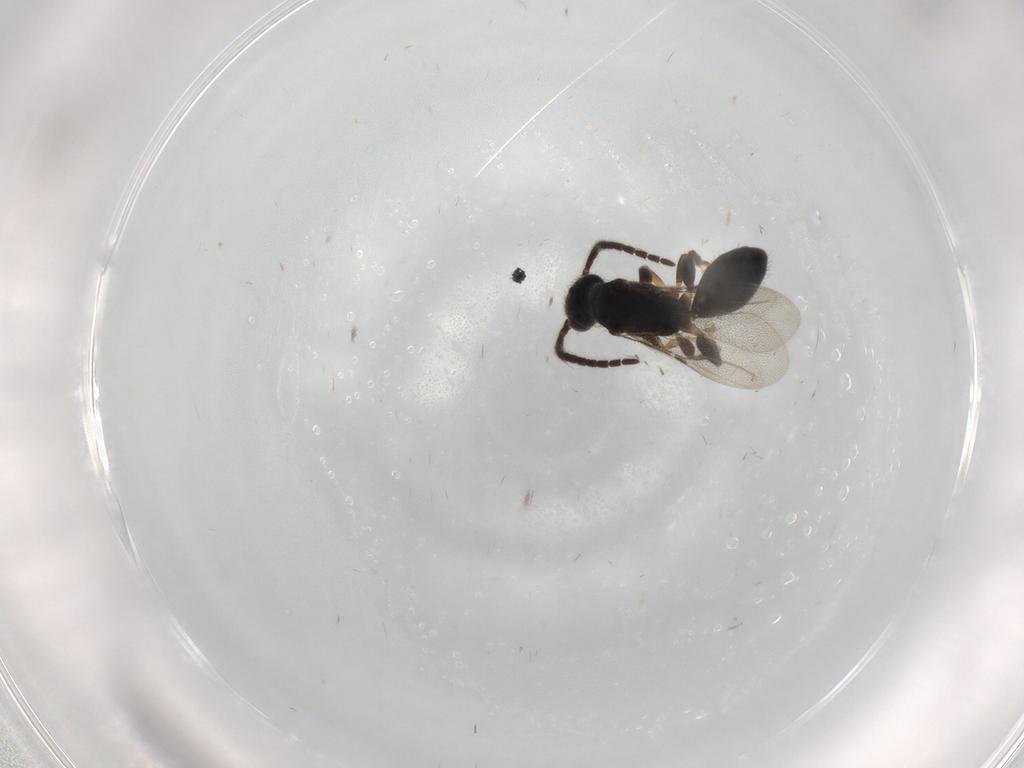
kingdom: Animalia
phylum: Arthropoda
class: Insecta
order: Hymenoptera
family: Bethylidae
